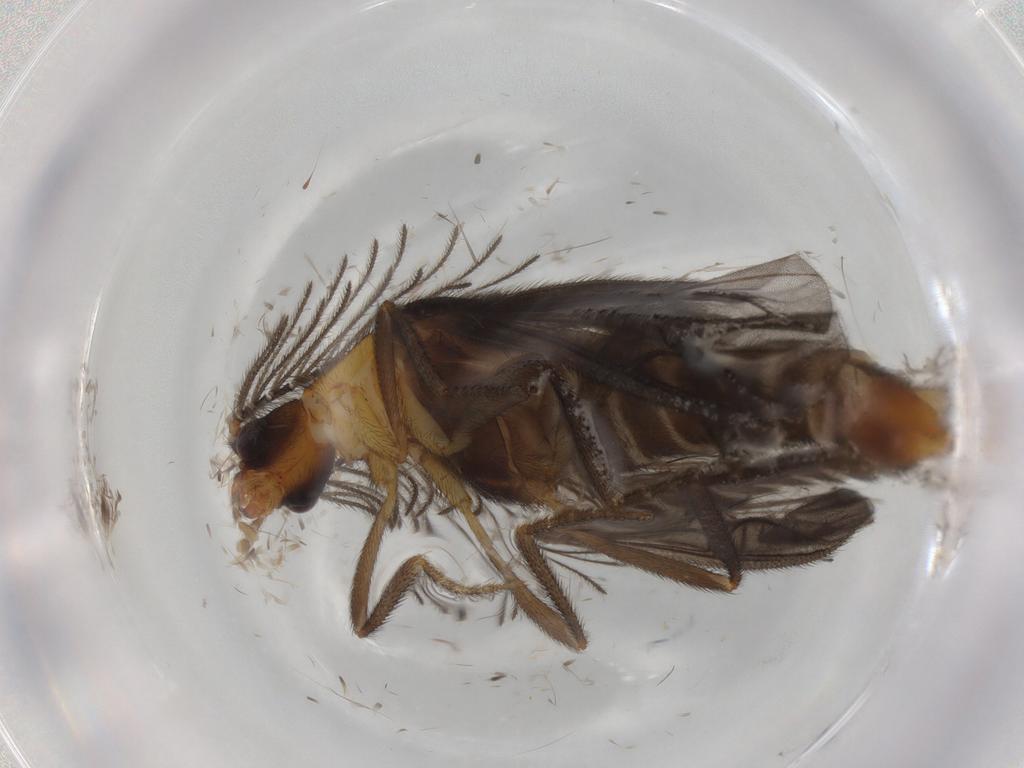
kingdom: Animalia
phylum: Arthropoda
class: Insecta
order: Coleoptera
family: Ptilodactylidae
